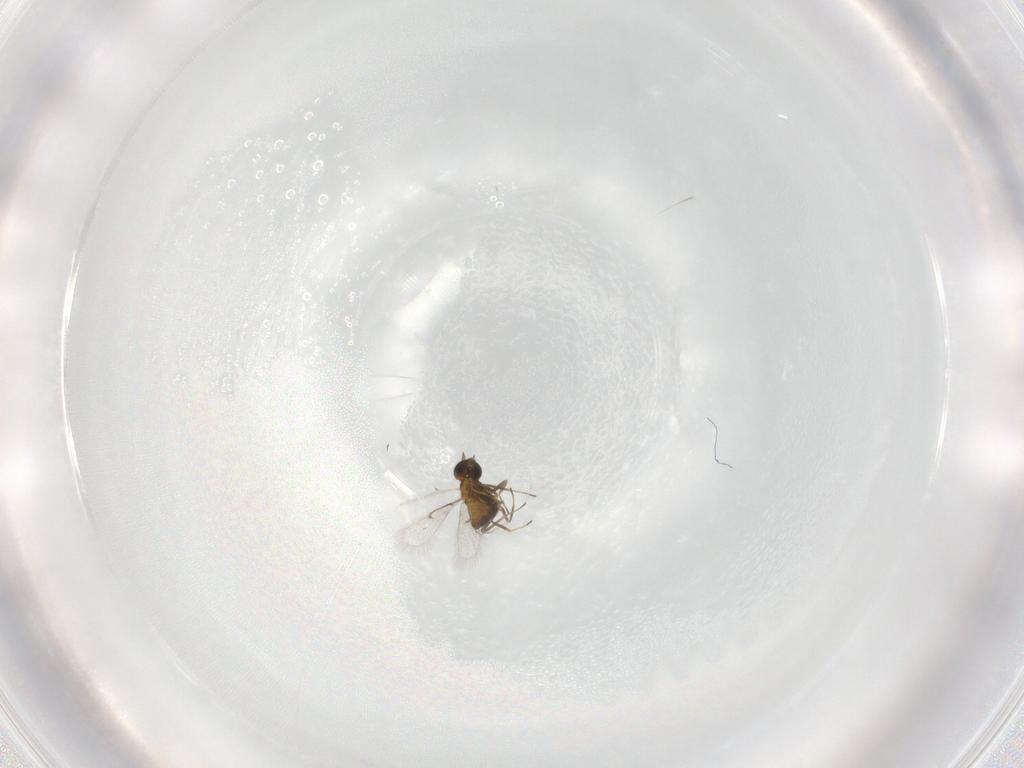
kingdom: Animalia
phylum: Arthropoda
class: Insecta
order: Hymenoptera
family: Trichogrammatidae
